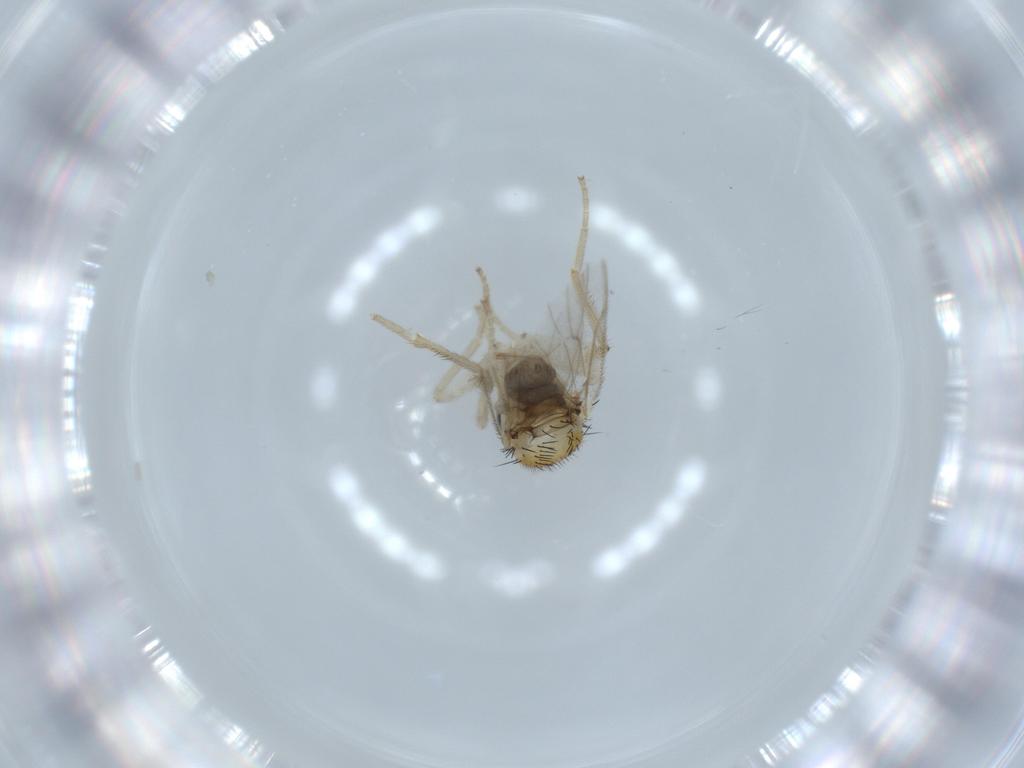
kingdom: Animalia
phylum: Arthropoda
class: Insecta
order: Diptera
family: Hybotidae
